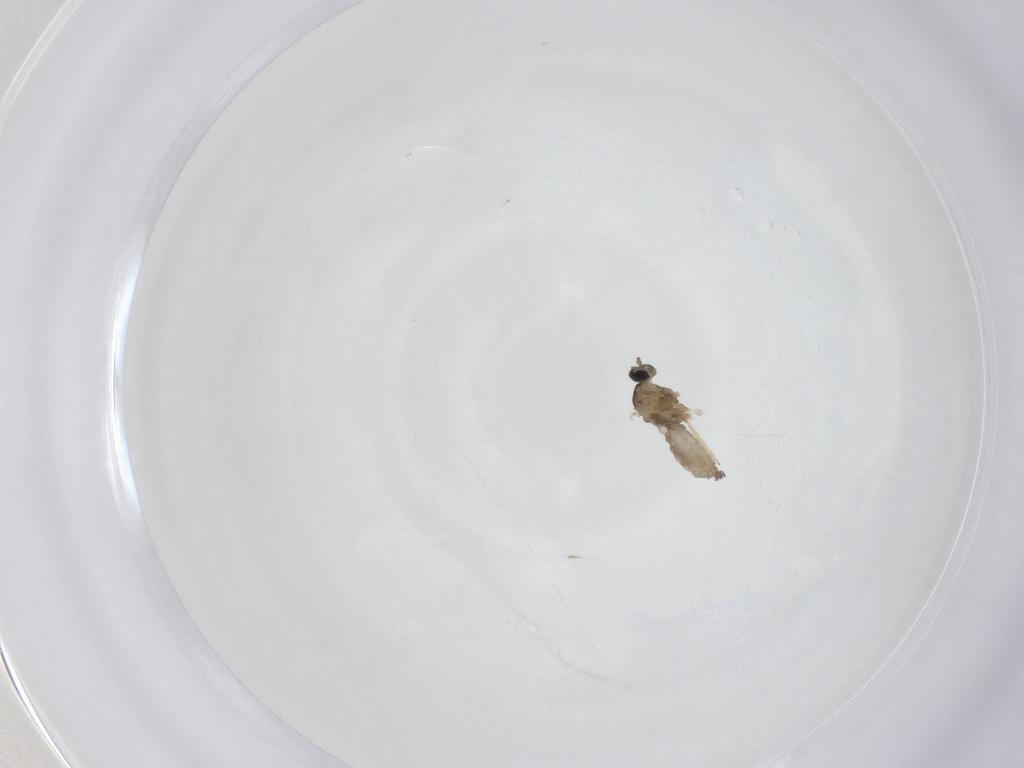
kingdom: Animalia
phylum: Arthropoda
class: Insecta
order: Diptera
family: Cecidomyiidae
